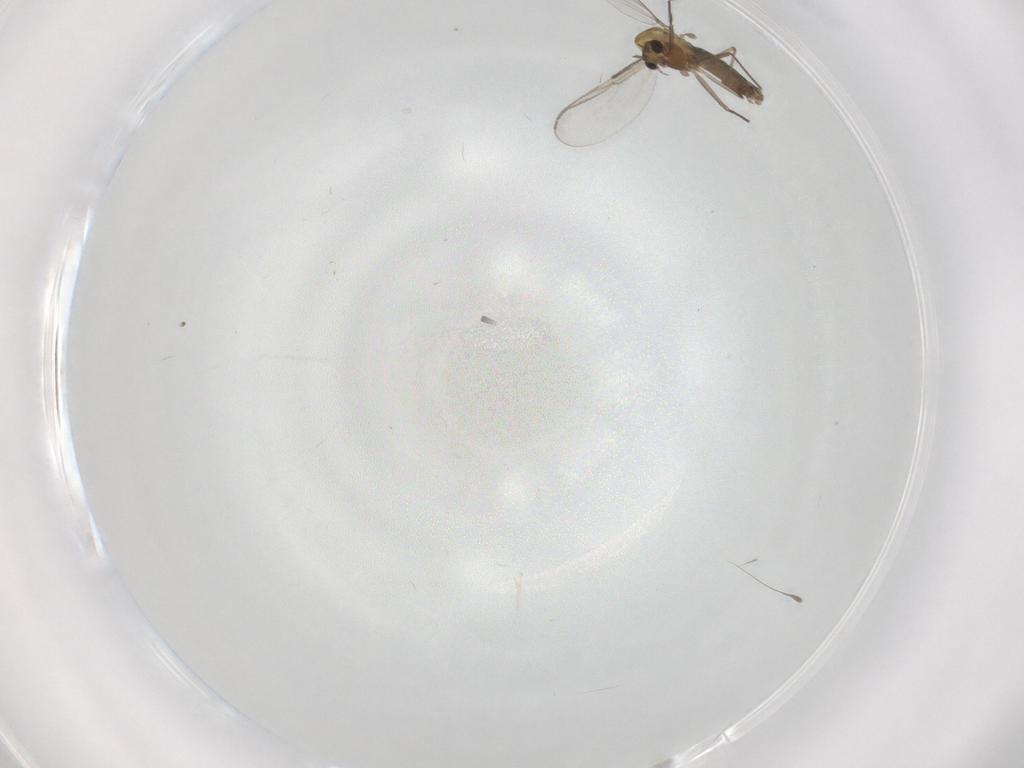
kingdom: Animalia
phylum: Arthropoda
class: Insecta
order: Diptera
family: Chironomidae
